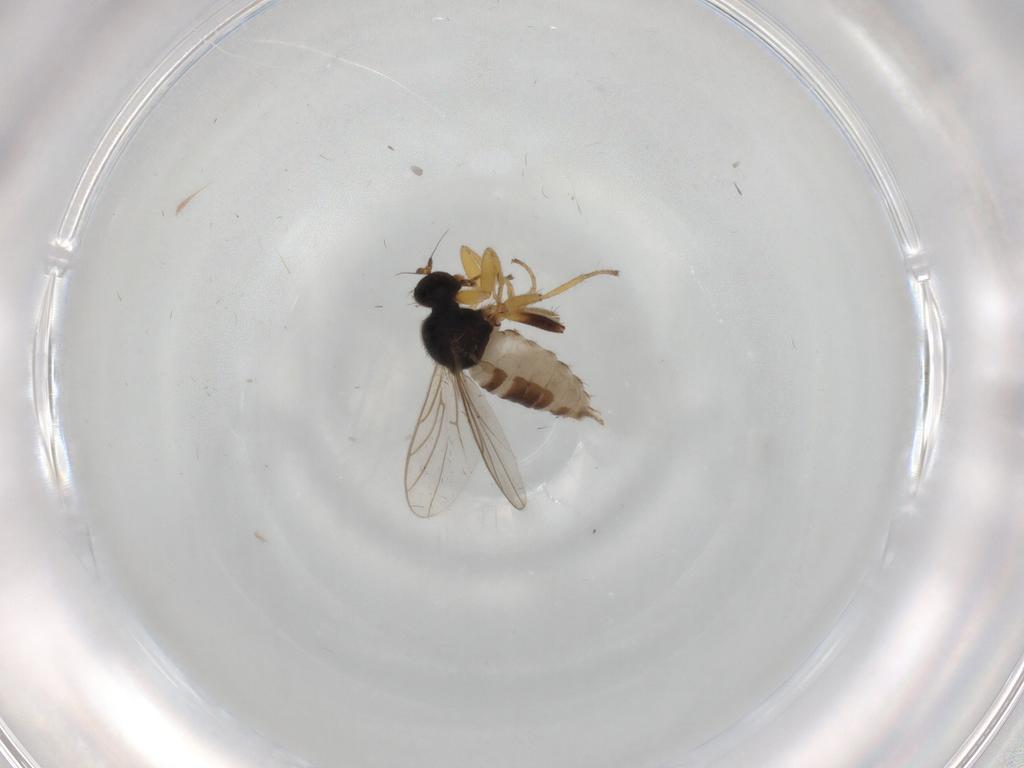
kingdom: Animalia
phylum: Arthropoda
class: Insecta
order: Diptera
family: Hybotidae
